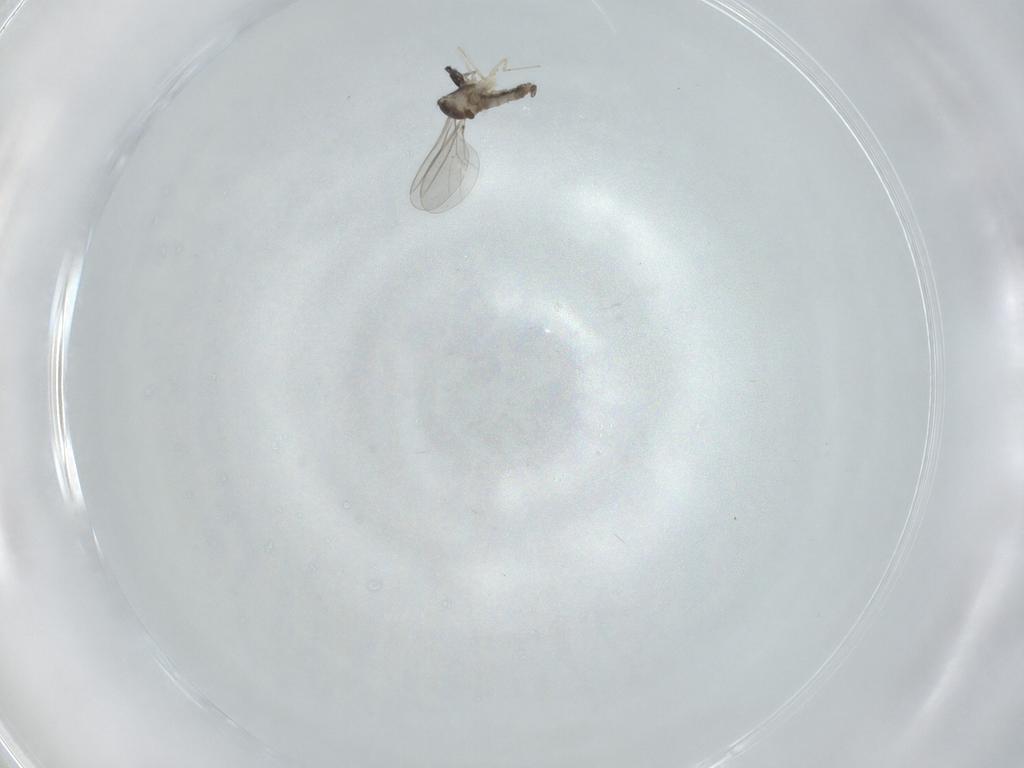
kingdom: Animalia
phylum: Arthropoda
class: Insecta
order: Diptera
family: Cecidomyiidae
